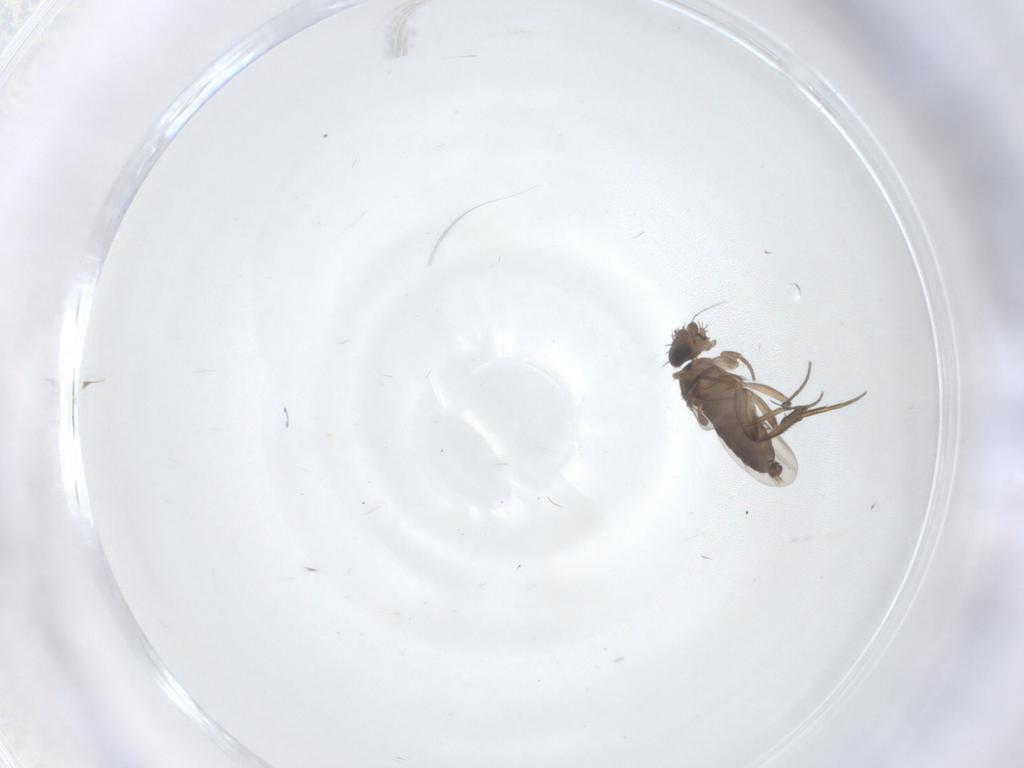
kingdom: Animalia
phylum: Arthropoda
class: Insecta
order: Diptera
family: Phoridae
